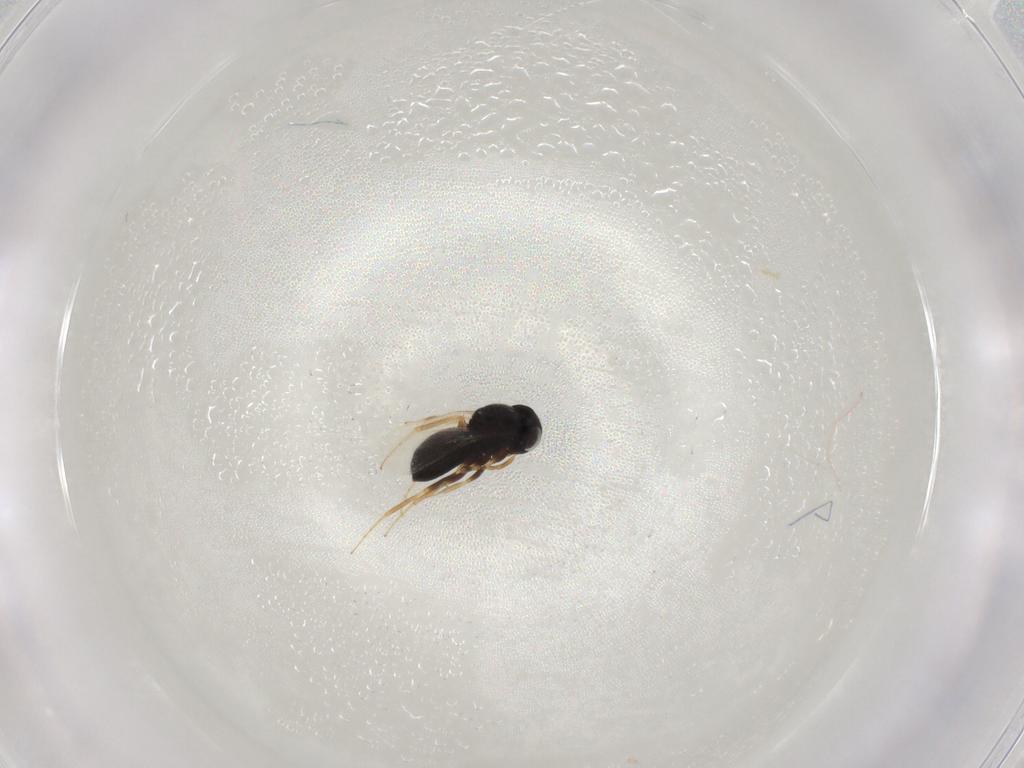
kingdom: Animalia
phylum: Arthropoda
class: Insecta
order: Hymenoptera
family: Scelionidae
